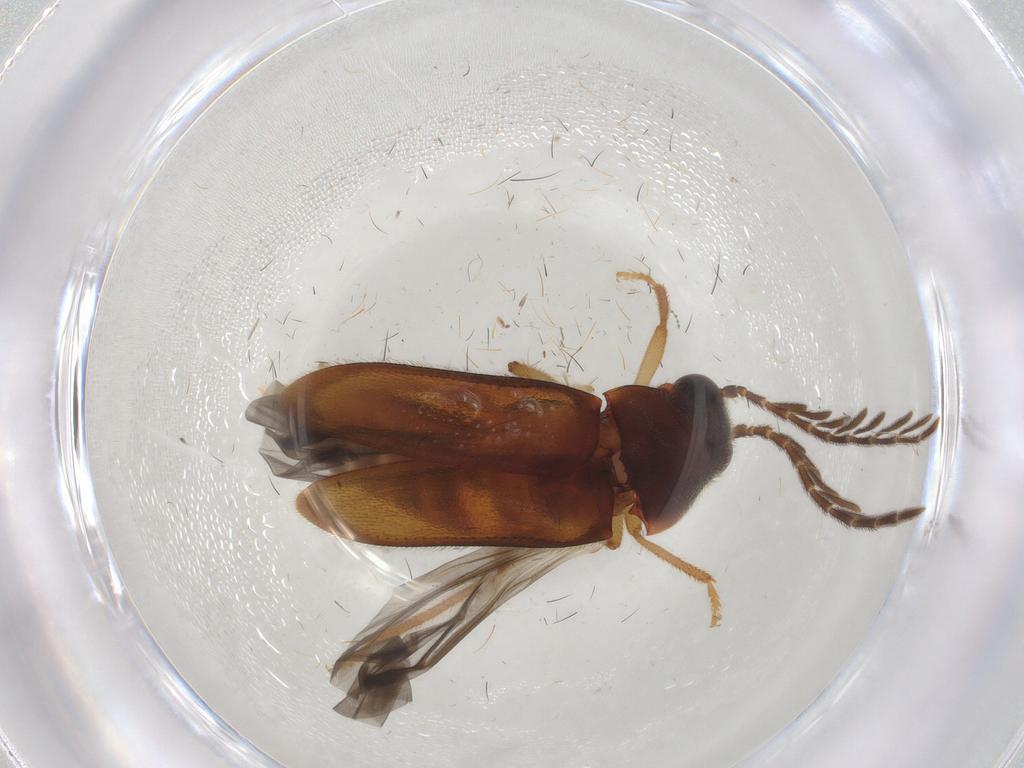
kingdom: Animalia
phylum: Arthropoda
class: Insecta
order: Coleoptera
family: Ptilodactylidae
